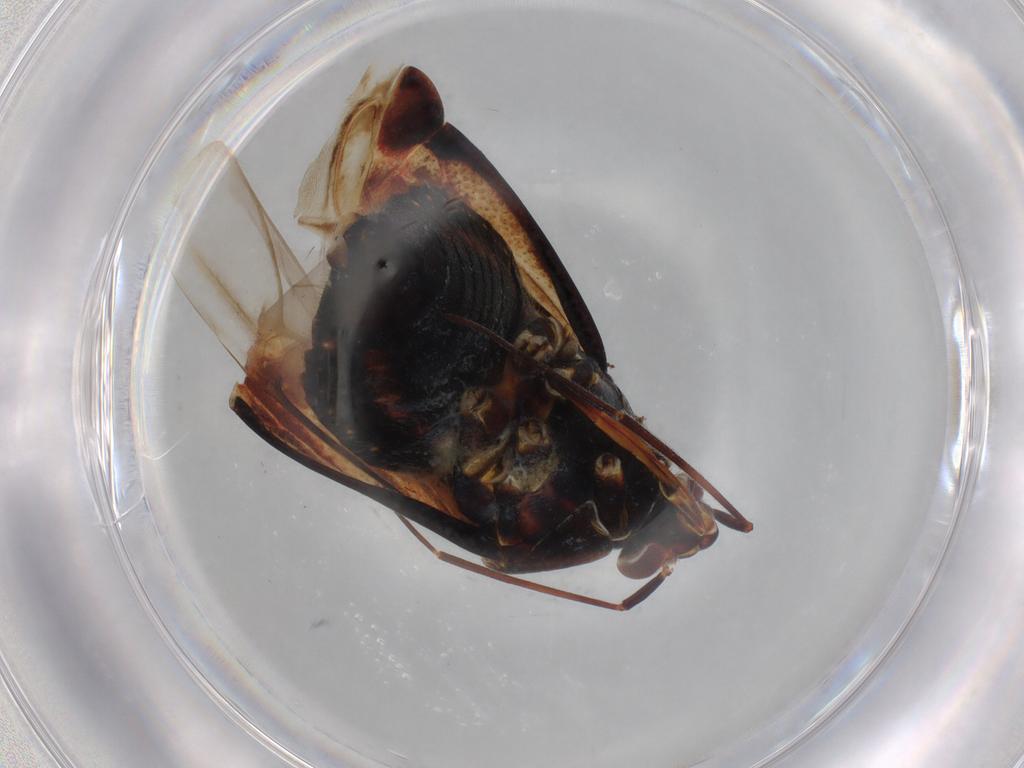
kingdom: Animalia
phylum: Arthropoda
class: Insecta
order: Hemiptera
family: Miridae
